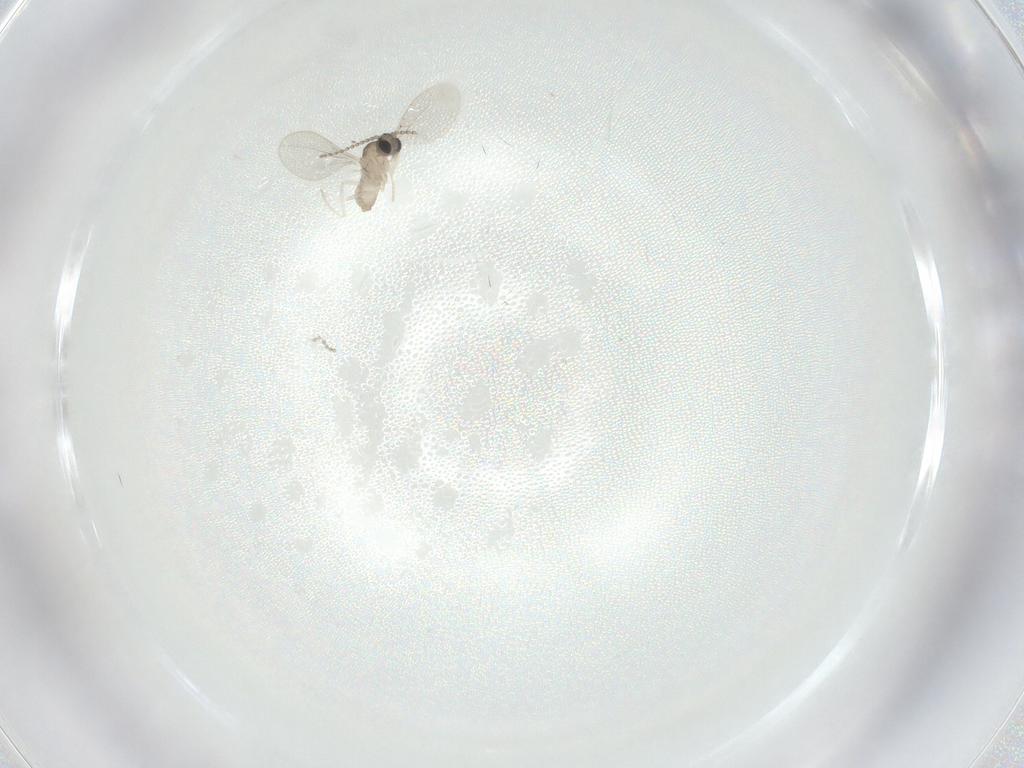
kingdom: Animalia
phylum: Arthropoda
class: Insecta
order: Diptera
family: Cecidomyiidae
